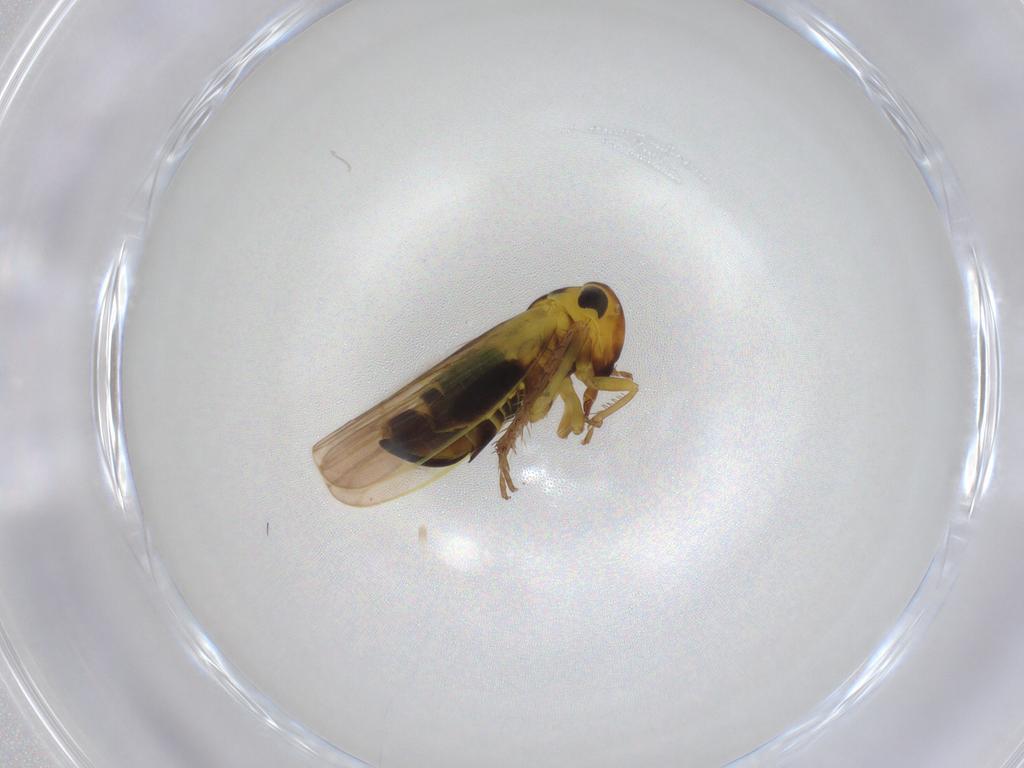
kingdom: Animalia
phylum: Arthropoda
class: Insecta
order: Hemiptera
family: Cicadellidae
